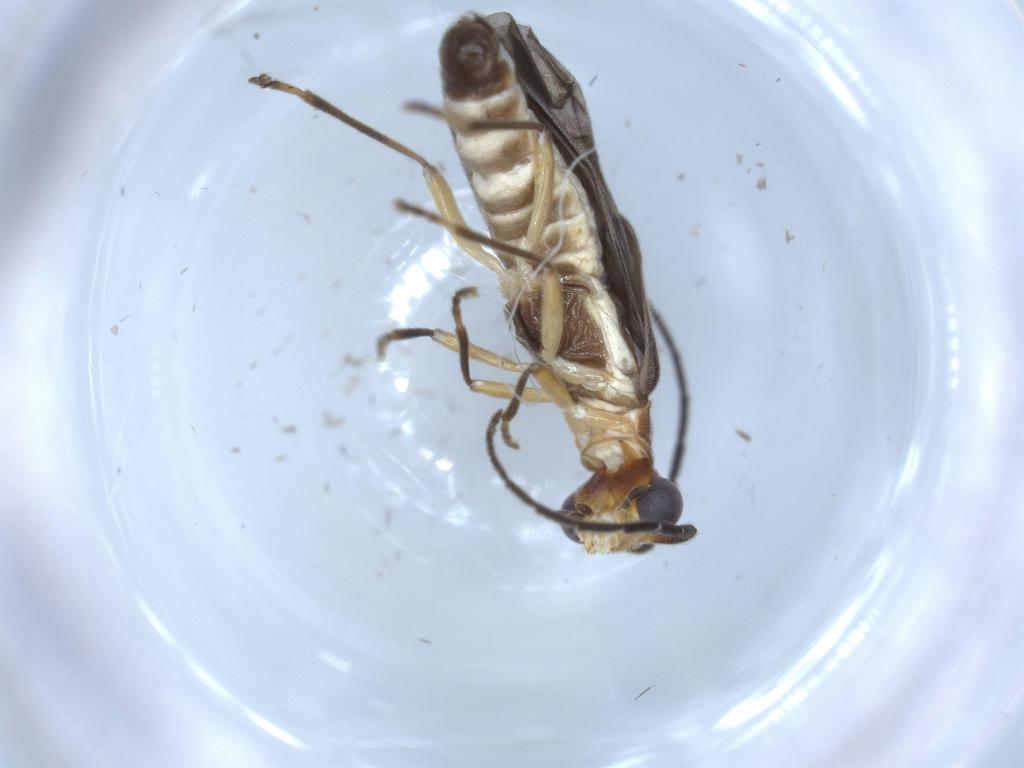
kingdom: Animalia
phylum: Arthropoda
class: Insecta
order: Coleoptera
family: Cantharidae
